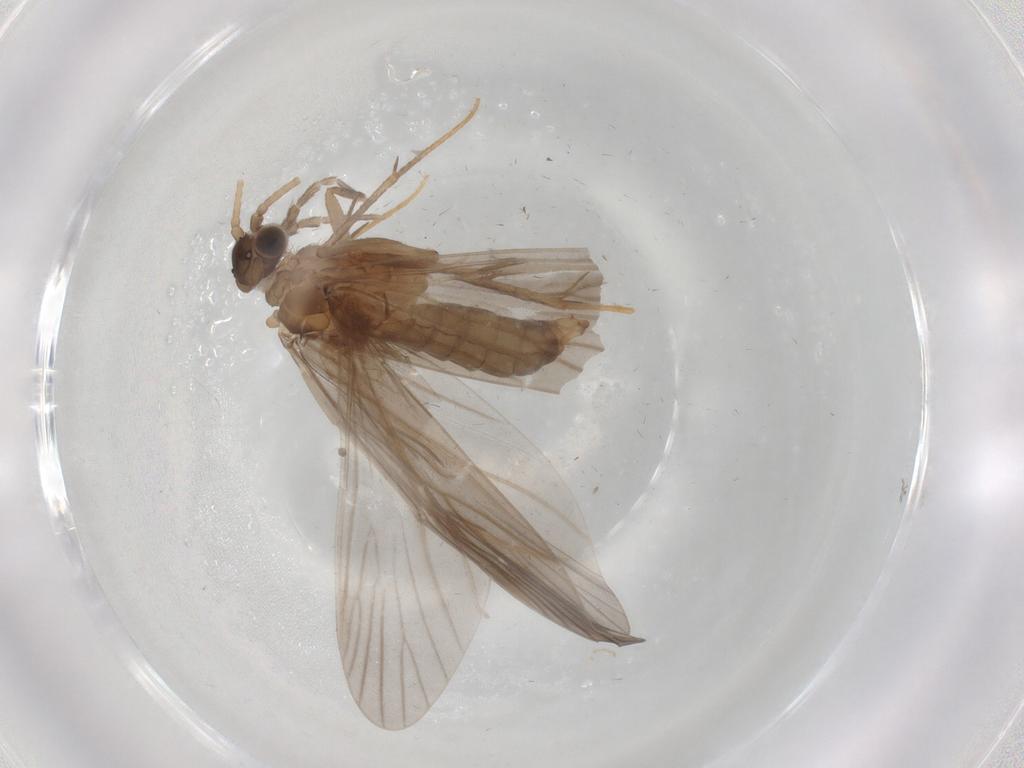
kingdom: Animalia
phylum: Arthropoda
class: Insecta
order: Trichoptera
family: Philopotamidae
